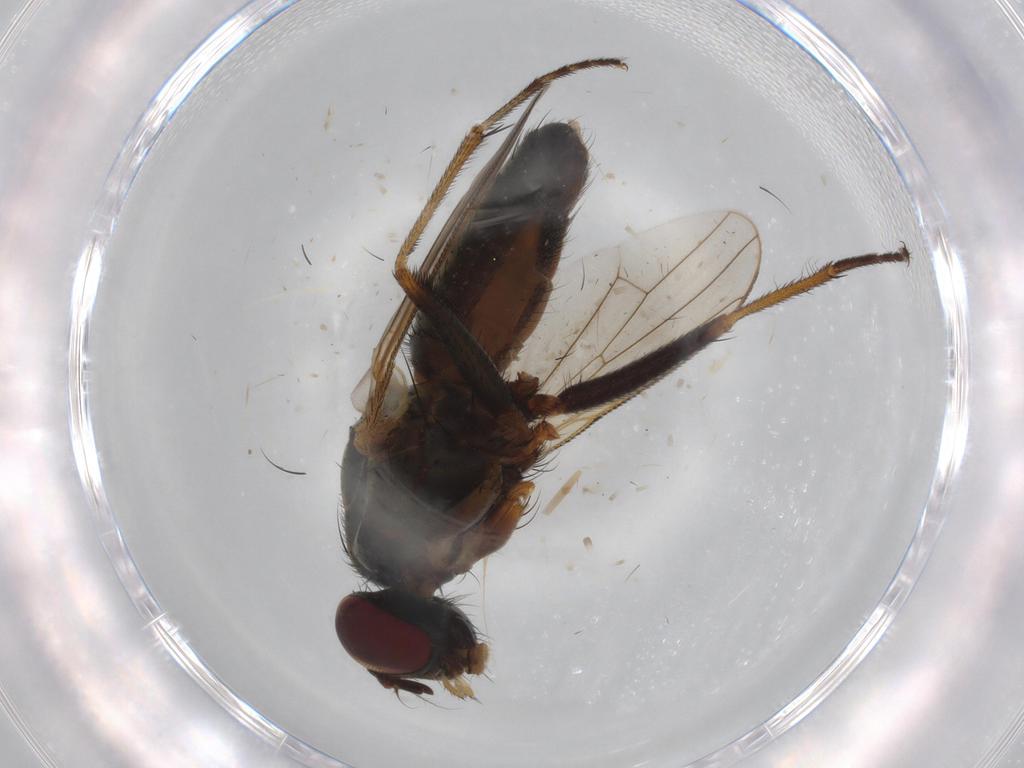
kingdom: Animalia
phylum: Arthropoda
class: Insecta
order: Diptera
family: Dolichopodidae
